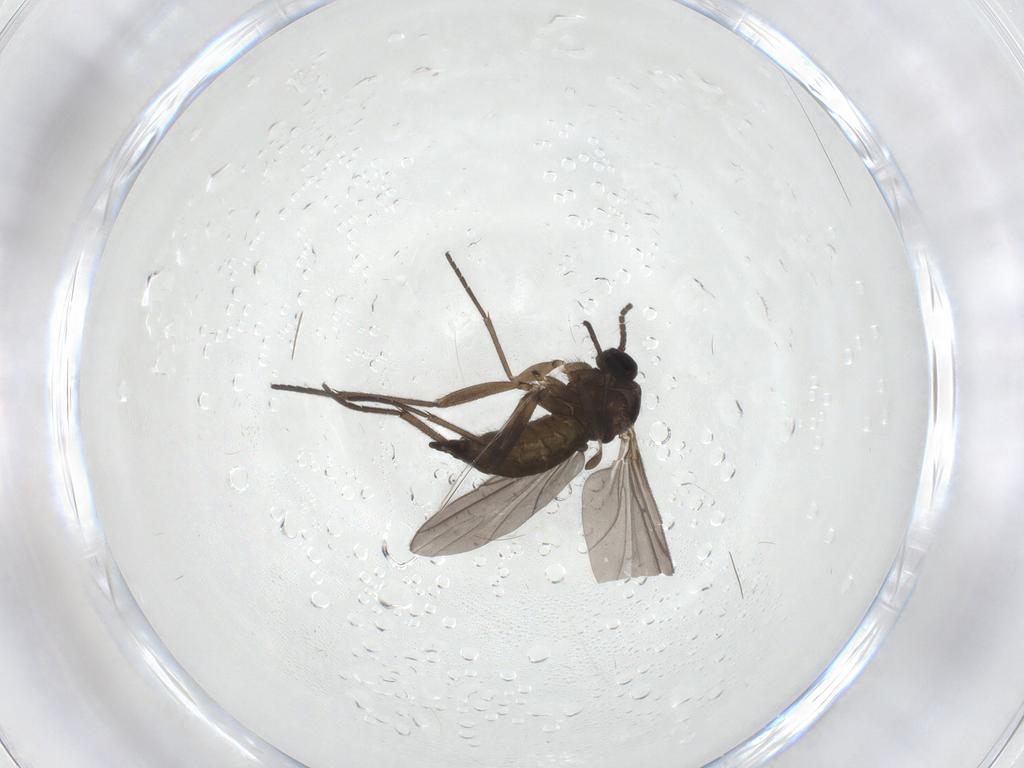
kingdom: Animalia
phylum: Arthropoda
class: Insecta
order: Diptera
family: Sciaridae
